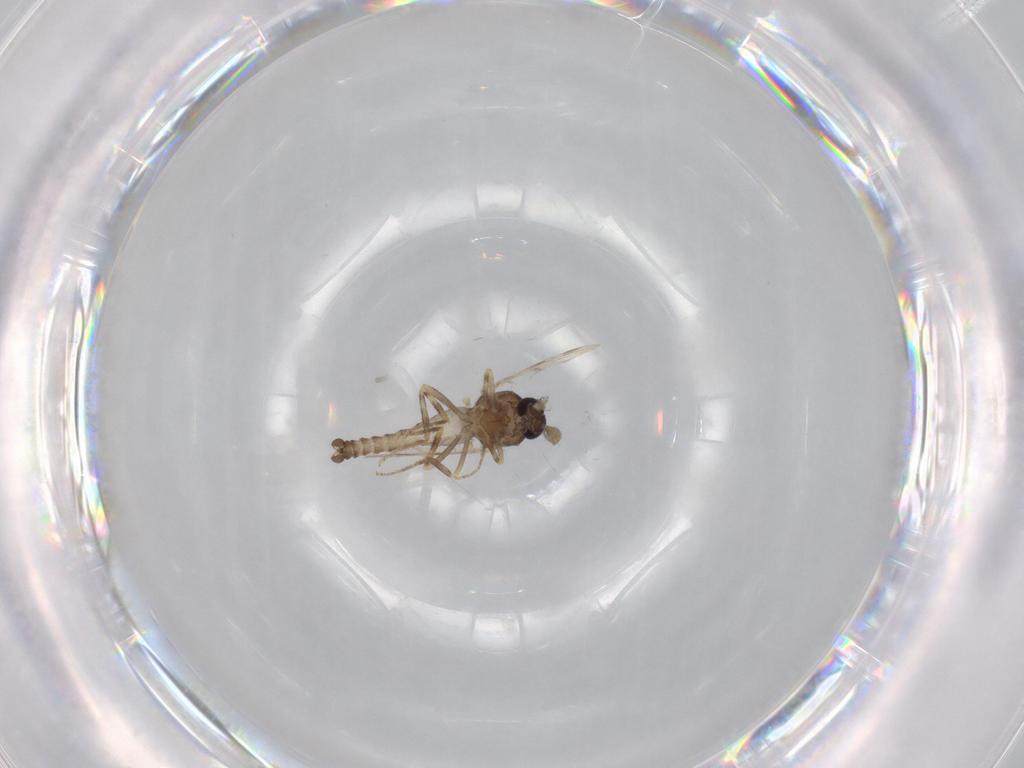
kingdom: Animalia
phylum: Arthropoda
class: Insecta
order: Diptera
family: Ceratopogonidae
